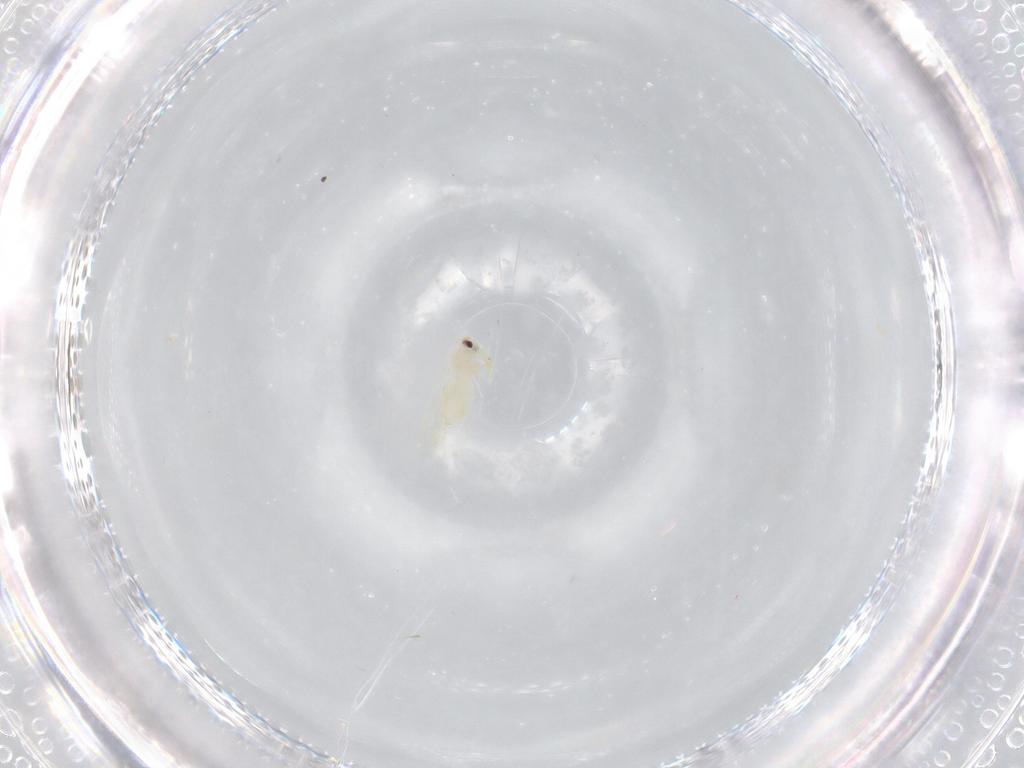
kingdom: Animalia
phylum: Arthropoda
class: Insecta
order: Hemiptera
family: Aleyrodidae
